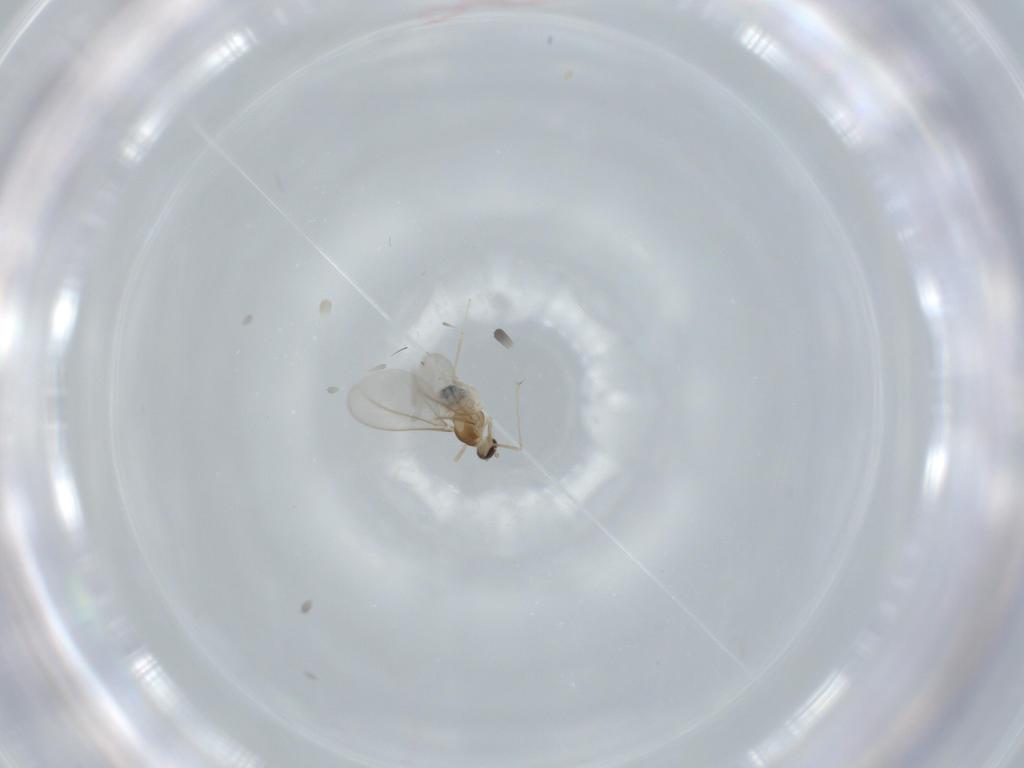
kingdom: Animalia
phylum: Arthropoda
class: Insecta
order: Diptera
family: Cecidomyiidae
